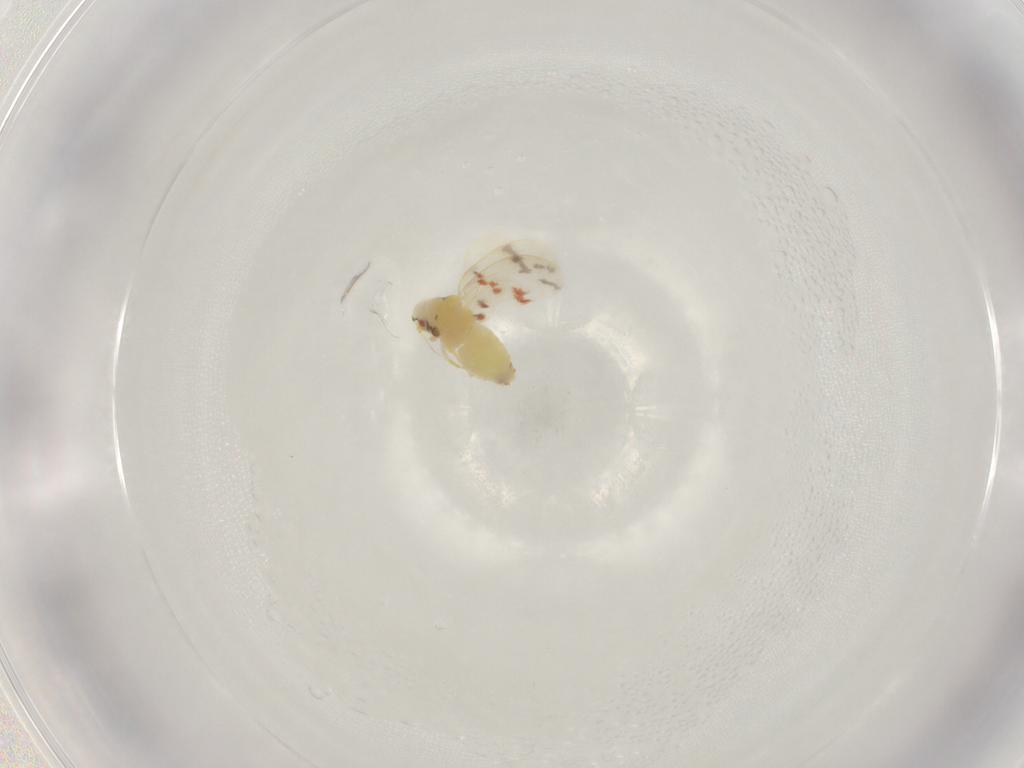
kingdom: Animalia
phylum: Arthropoda
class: Insecta
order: Hemiptera
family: Aleyrodidae
